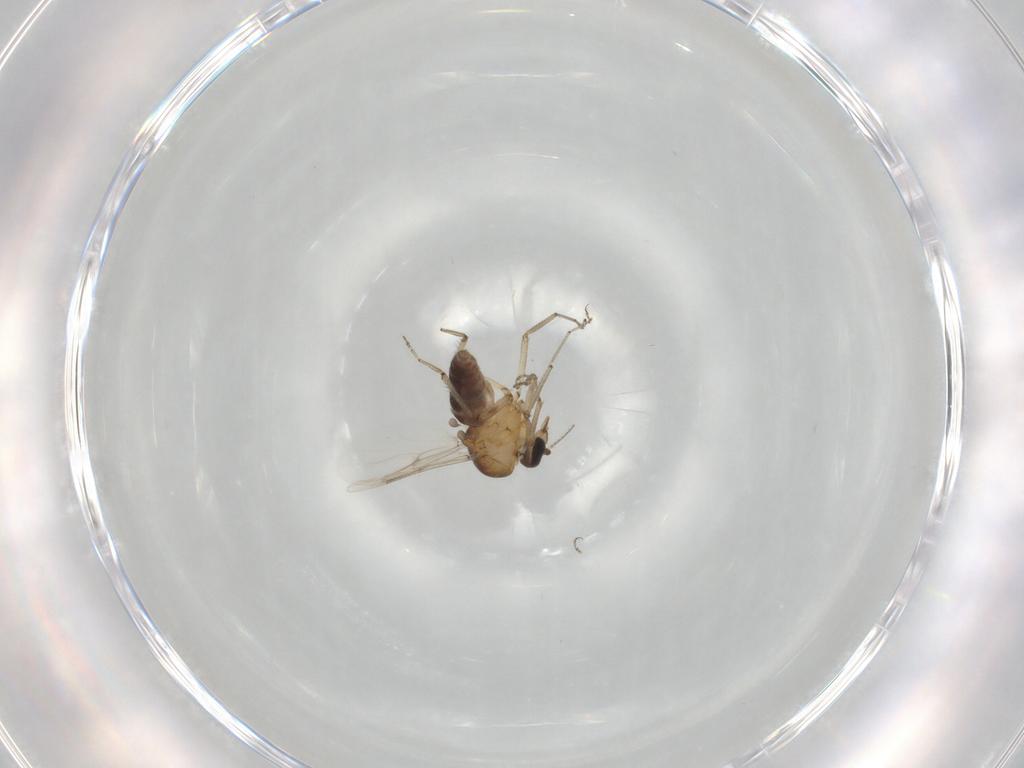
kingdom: Animalia
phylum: Arthropoda
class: Insecta
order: Diptera
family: Ceratopogonidae
